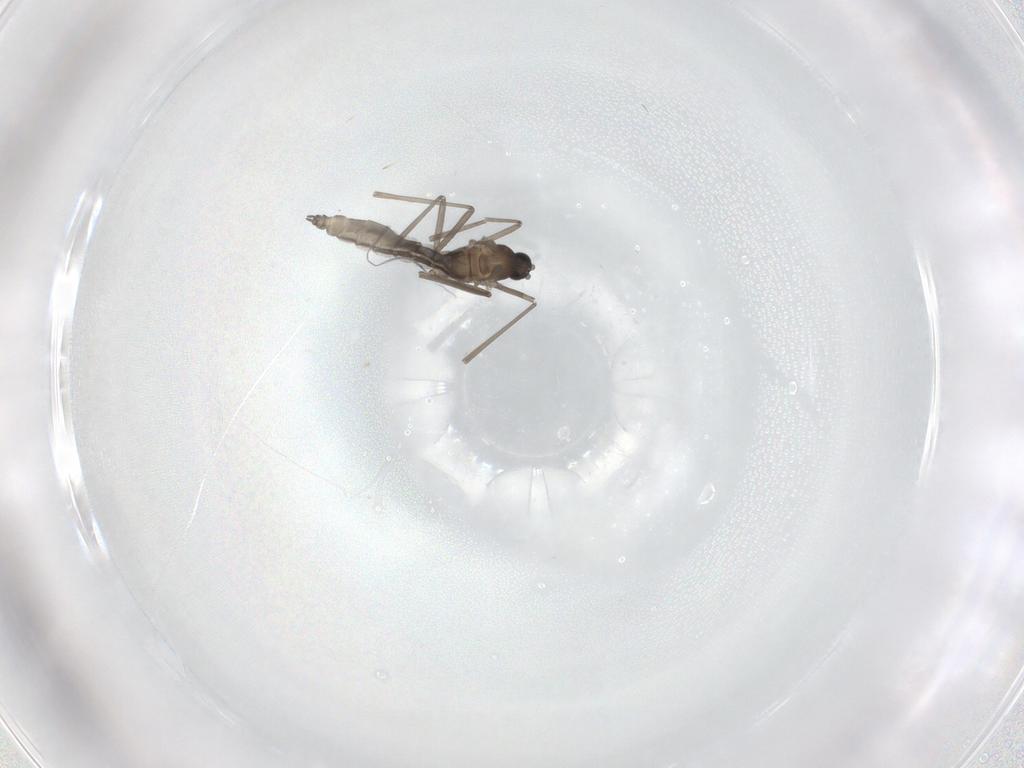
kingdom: Animalia
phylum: Arthropoda
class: Insecta
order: Diptera
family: Cecidomyiidae
